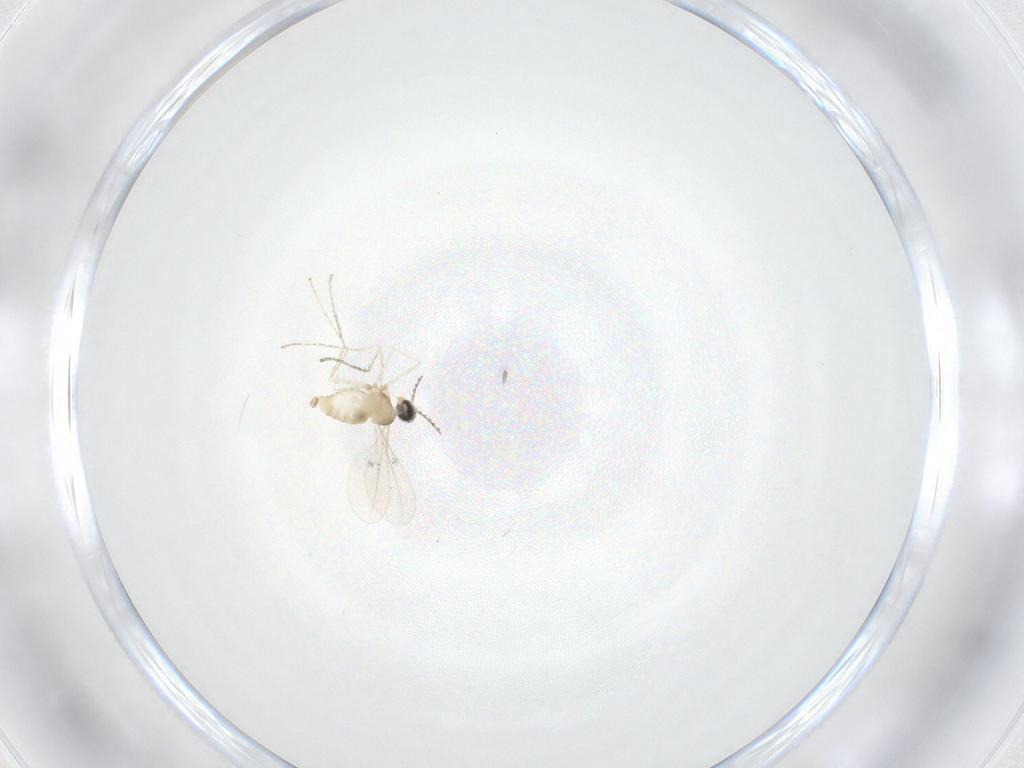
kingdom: Animalia
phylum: Arthropoda
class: Insecta
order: Diptera
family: Cecidomyiidae
